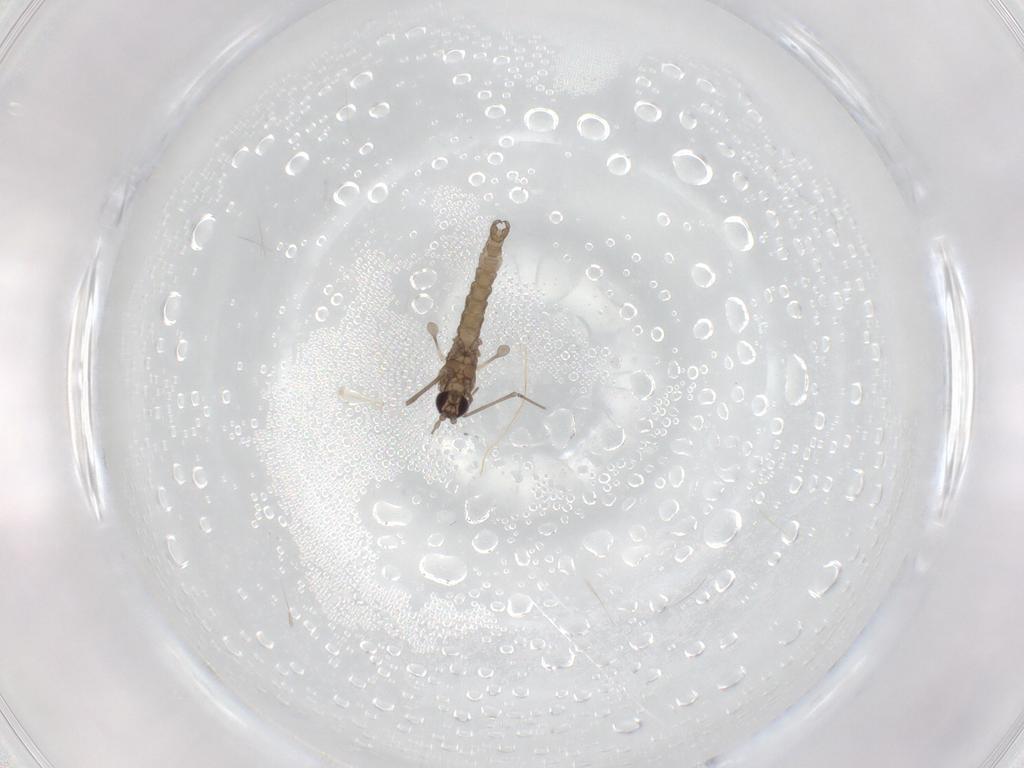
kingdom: Animalia
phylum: Arthropoda
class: Insecta
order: Diptera
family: Cecidomyiidae
